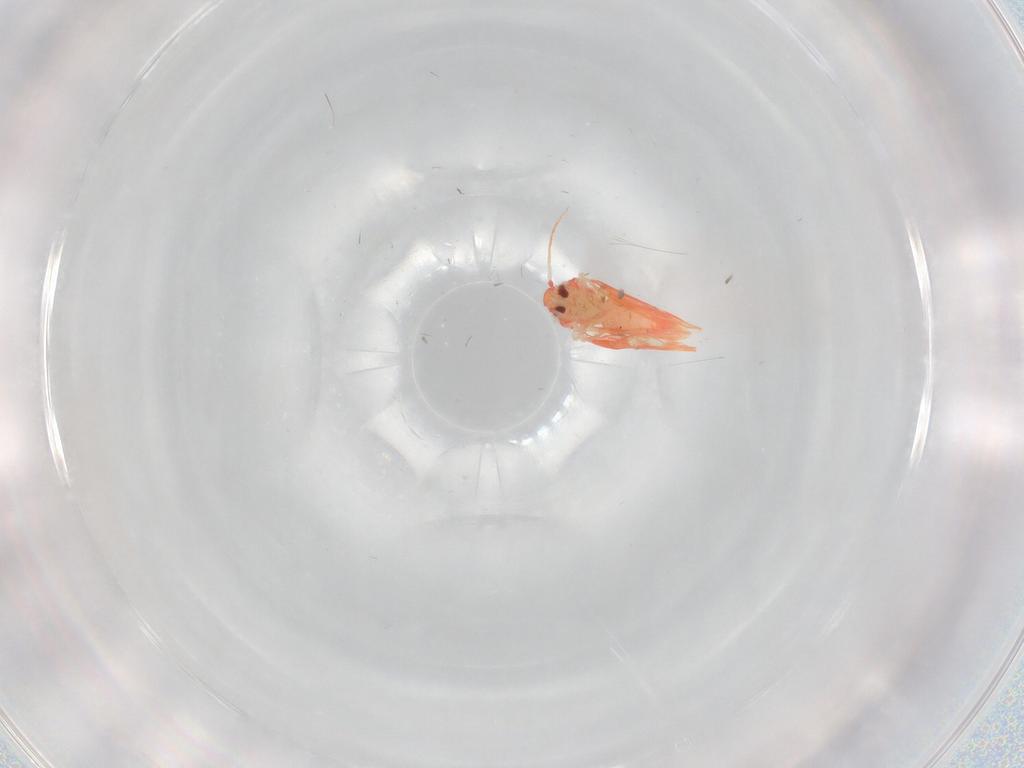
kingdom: Animalia
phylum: Arthropoda
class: Insecta
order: Hemiptera
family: Aleyrodidae
